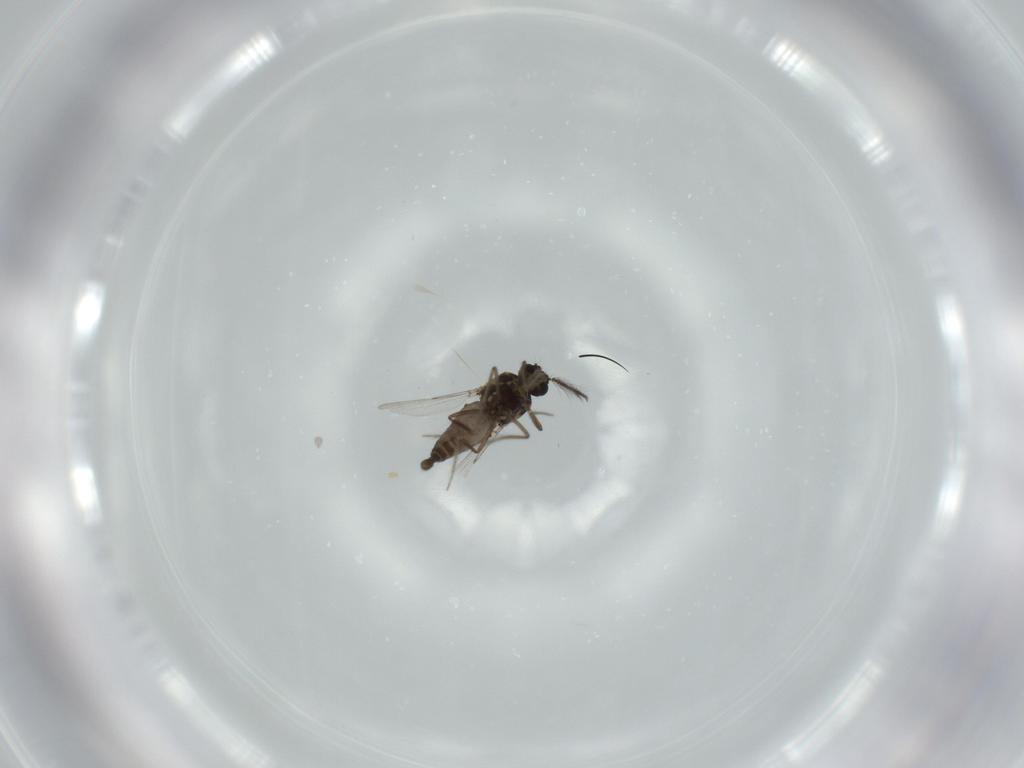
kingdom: Animalia
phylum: Arthropoda
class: Insecta
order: Diptera
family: Ceratopogonidae
